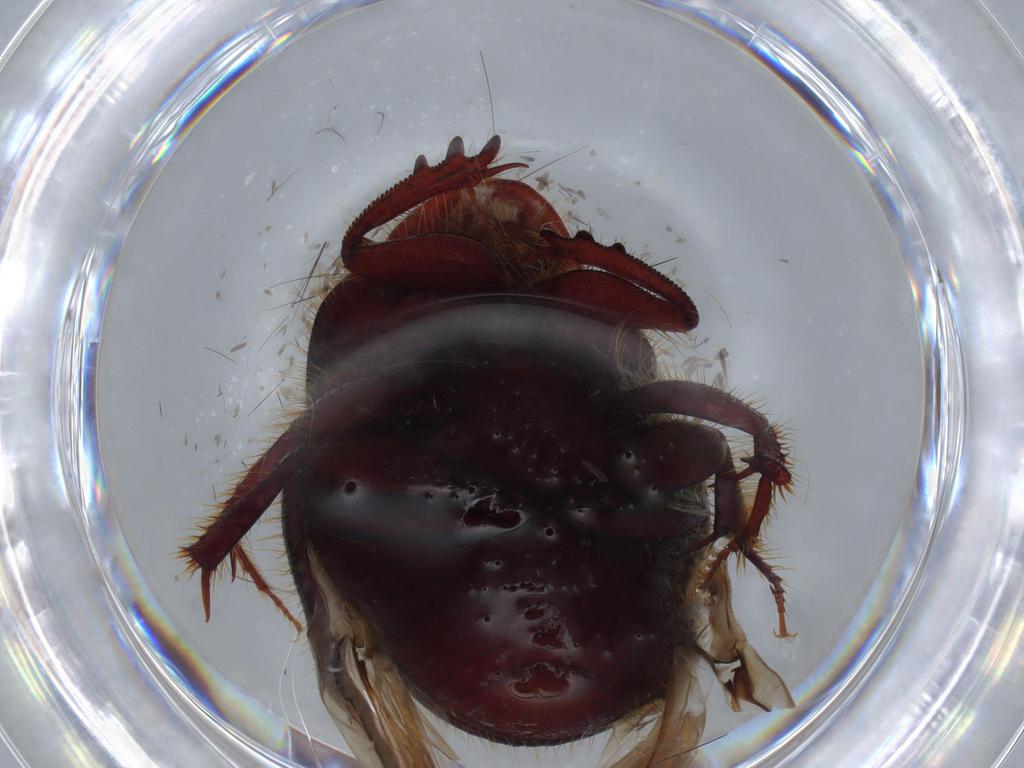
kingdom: Animalia
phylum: Arthropoda
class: Insecta
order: Coleoptera
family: Scarabaeidae
